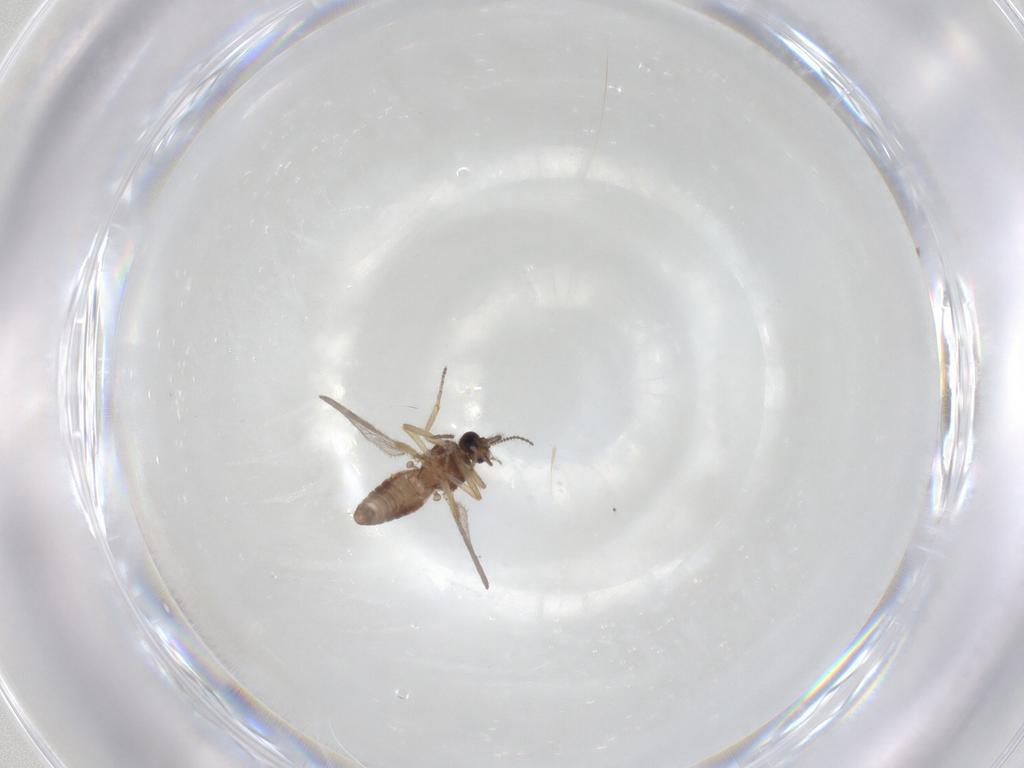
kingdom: Animalia
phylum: Arthropoda
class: Insecta
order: Diptera
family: Ceratopogonidae
